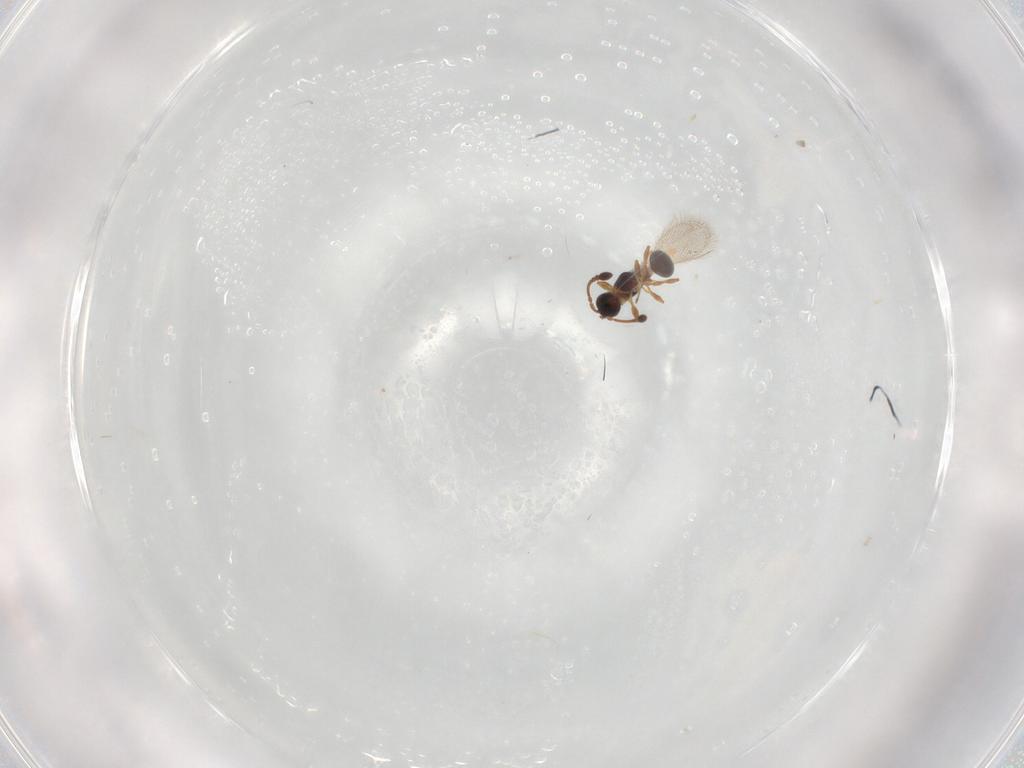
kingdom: Animalia
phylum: Arthropoda
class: Insecta
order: Hymenoptera
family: Diapriidae
